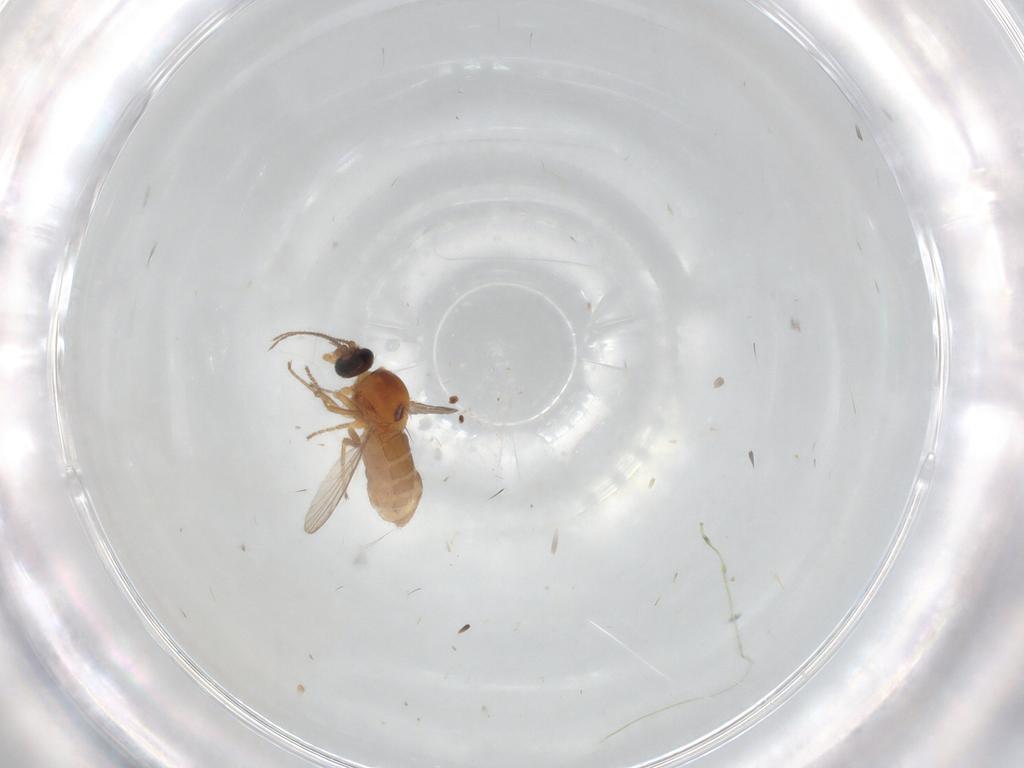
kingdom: Animalia
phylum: Arthropoda
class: Insecta
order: Diptera
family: Ceratopogonidae
